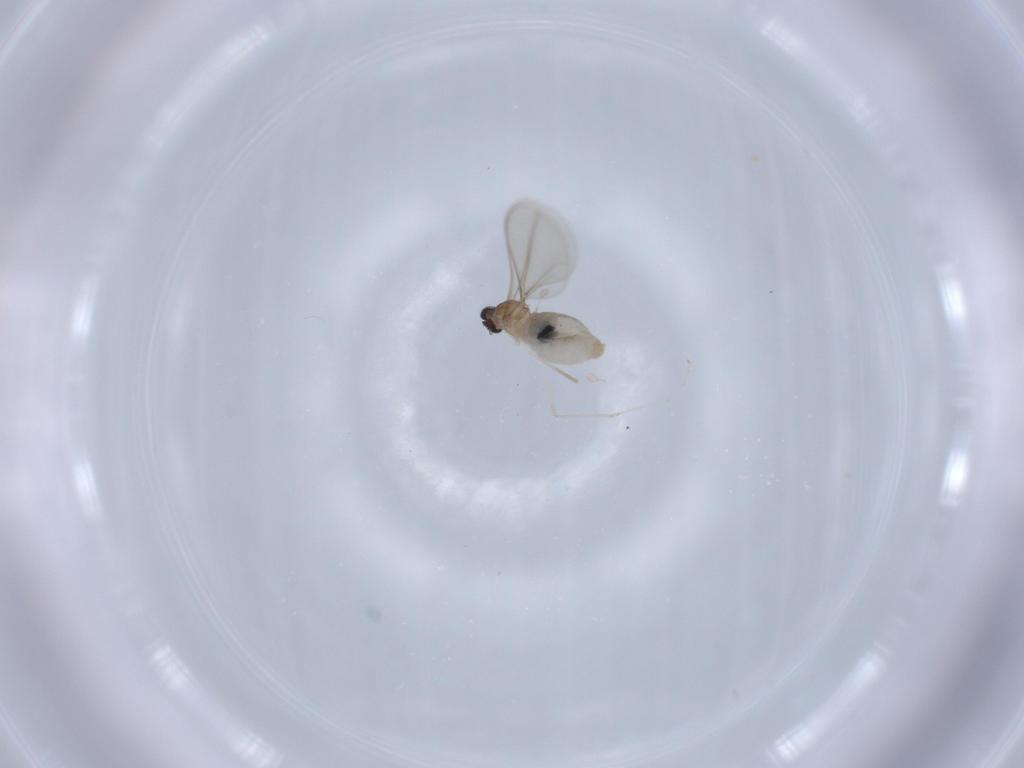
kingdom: Animalia
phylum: Arthropoda
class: Insecta
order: Diptera
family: Cecidomyiidae
